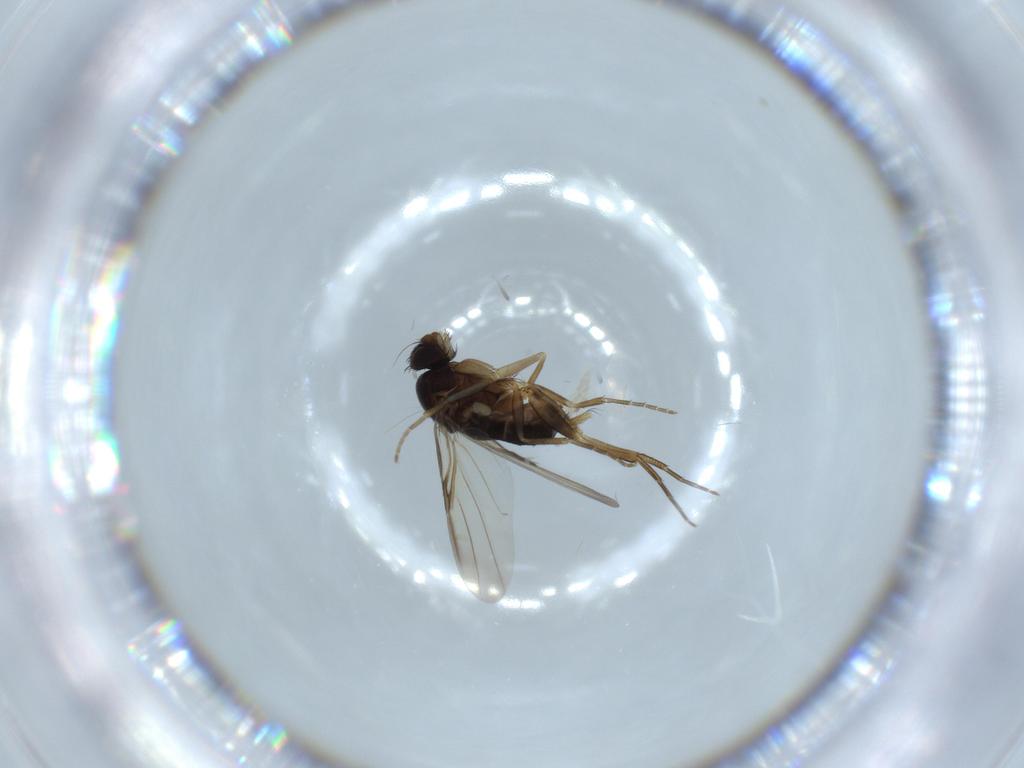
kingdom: Animalia
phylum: Arthropoda
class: Insecta
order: Diptera
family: Phoridae
